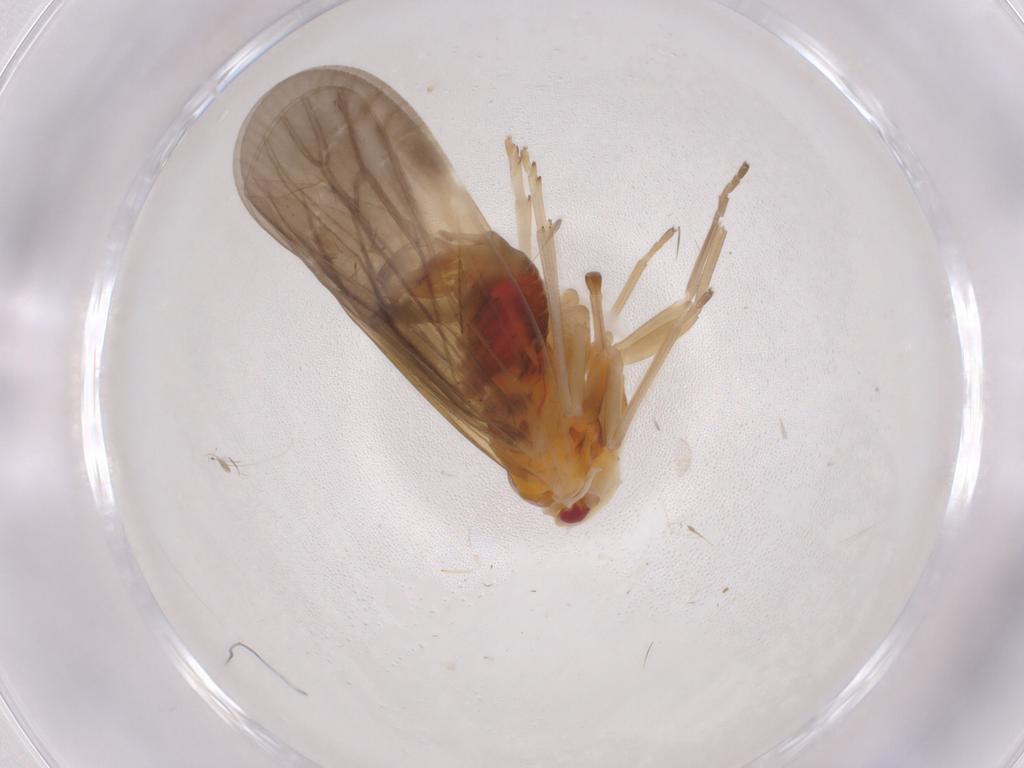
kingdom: Animalia
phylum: Arthropoda
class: Insecta
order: Hemiptera
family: Derbidae
